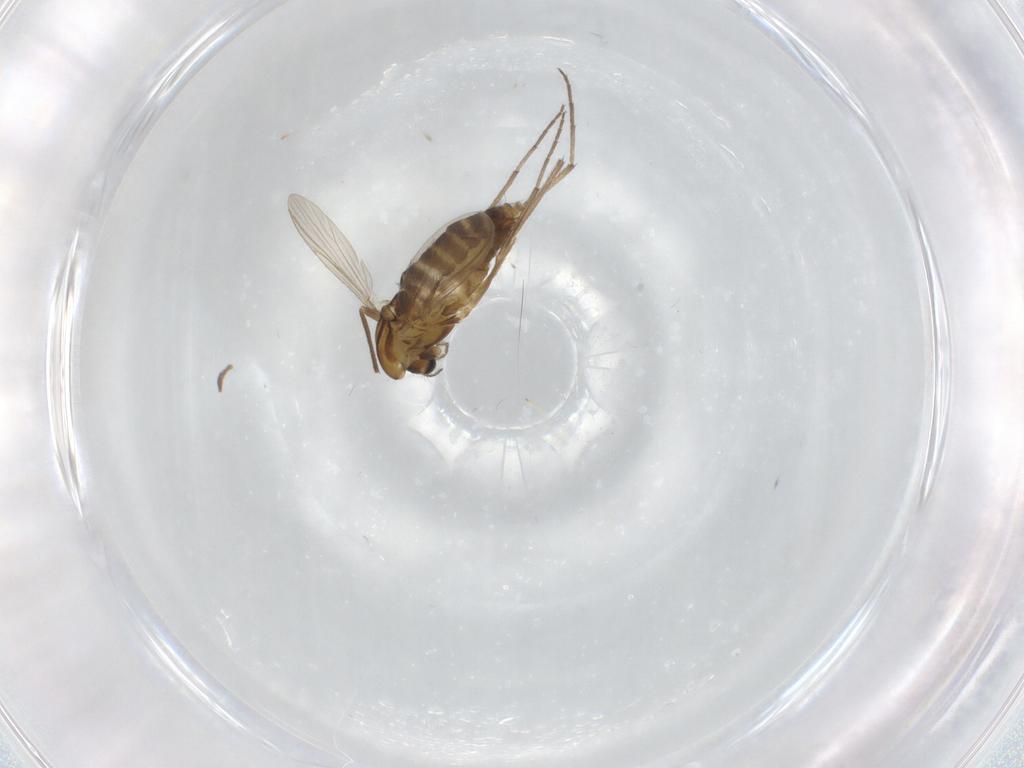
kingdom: Animalia
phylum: Arthropoda
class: Insecta
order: Diptera
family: Chironomidae
